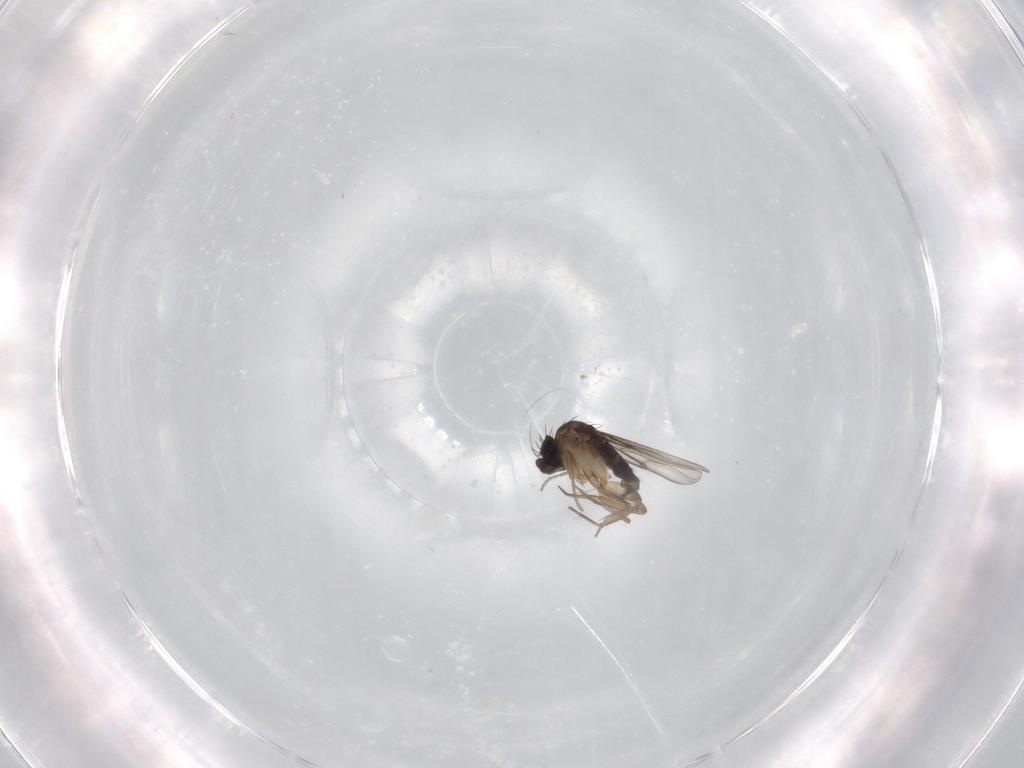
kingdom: Animalia
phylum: Arthropoda
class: Insecta
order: Diptera
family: Phoridae
